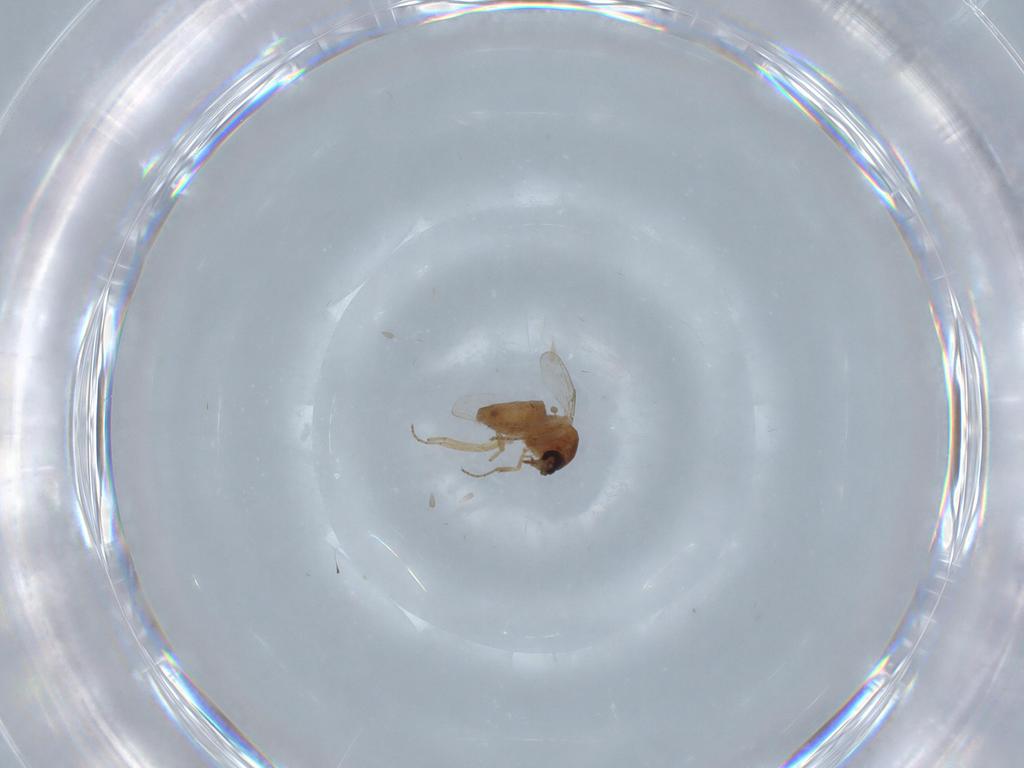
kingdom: Animalia
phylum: Arthropoda
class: Insecta
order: Diptera
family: Ceratopogonidae
